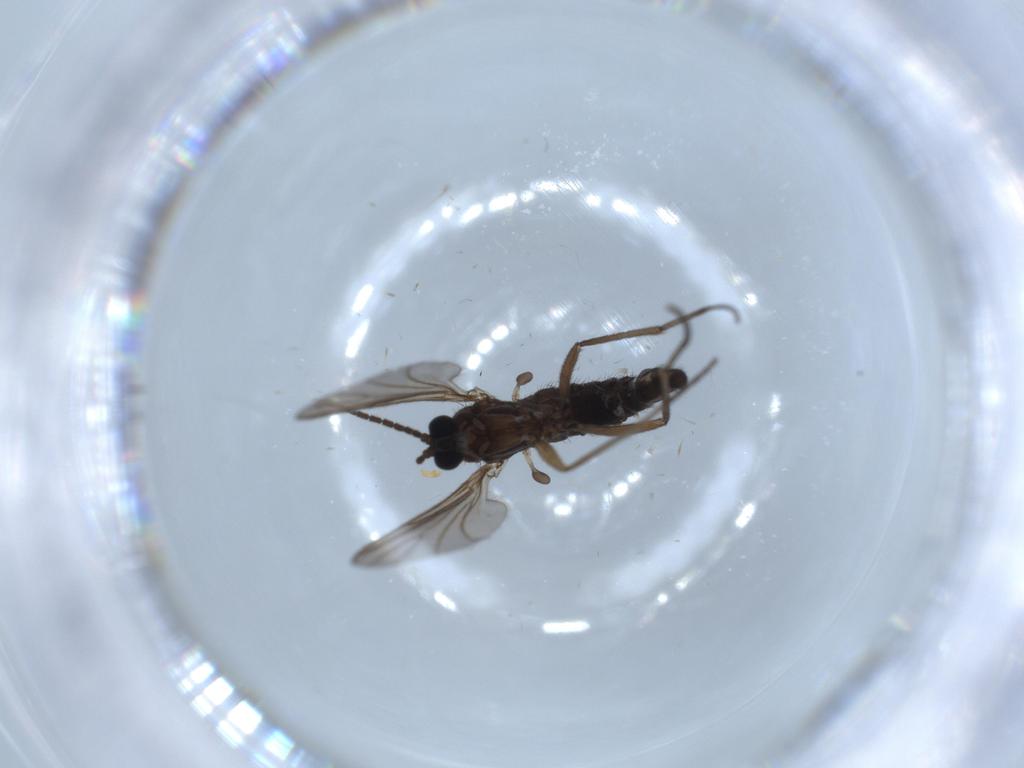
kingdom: Animalia
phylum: Arthropoda
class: Insecta
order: Diptera
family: Sciaridae
